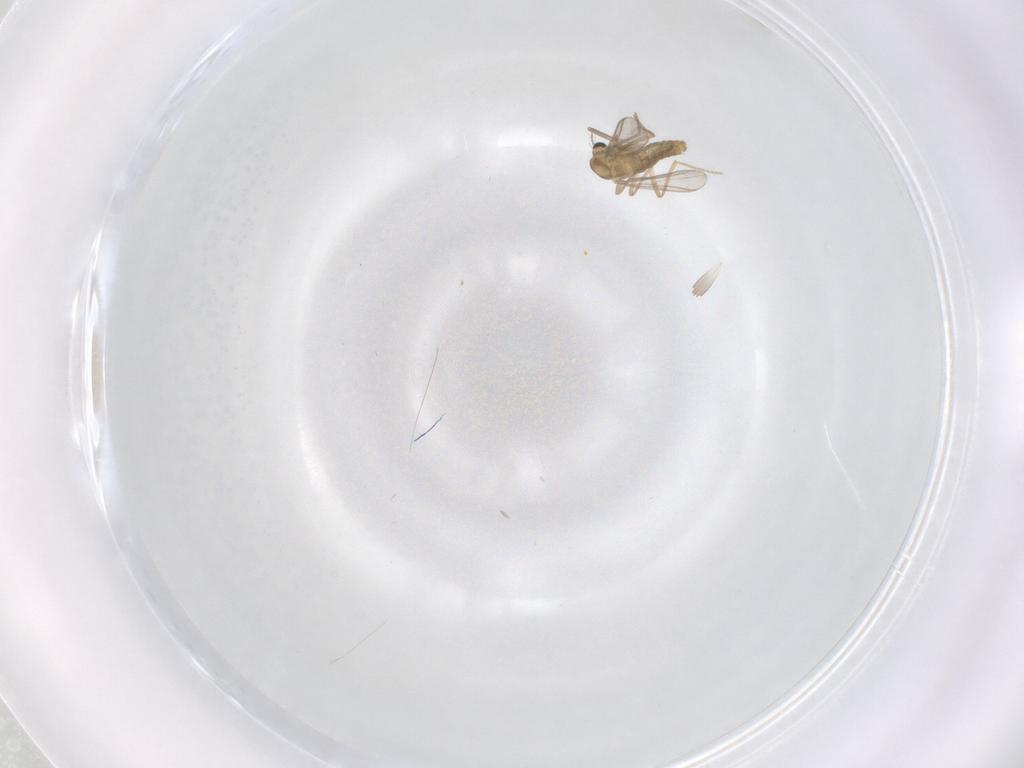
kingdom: Animalia
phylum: Arthropoda
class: Insecta
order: Diptera
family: Chironomidae
